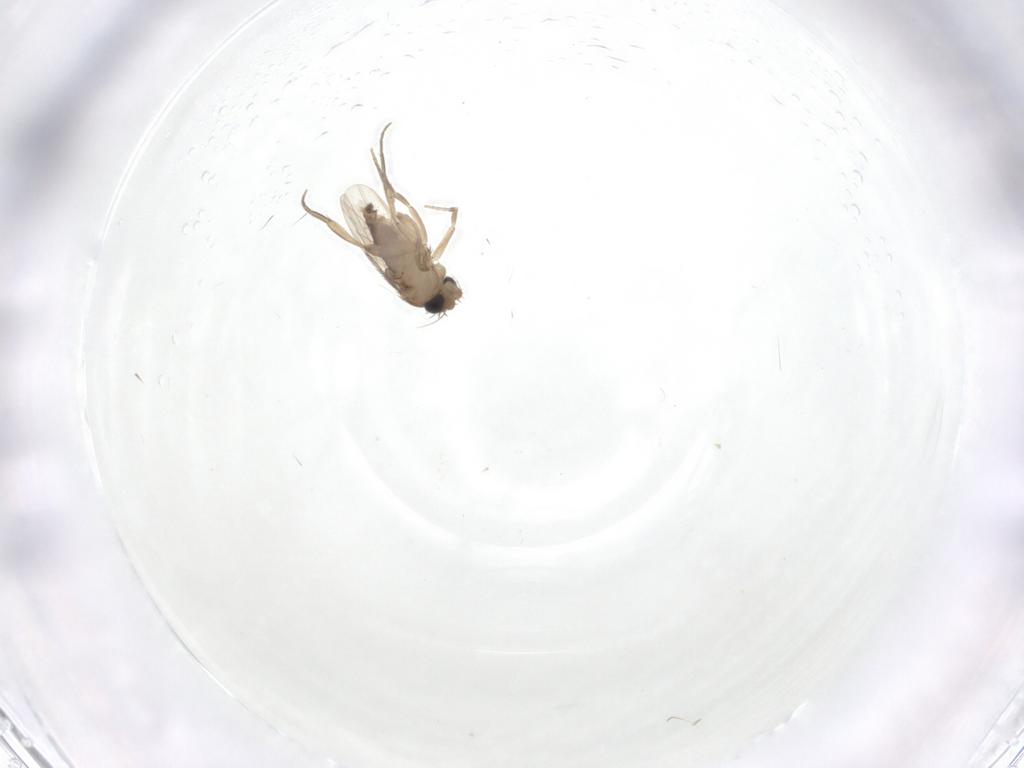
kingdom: Animalia
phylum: Arthropoda
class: Insecta
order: Diptera
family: Phoridae
